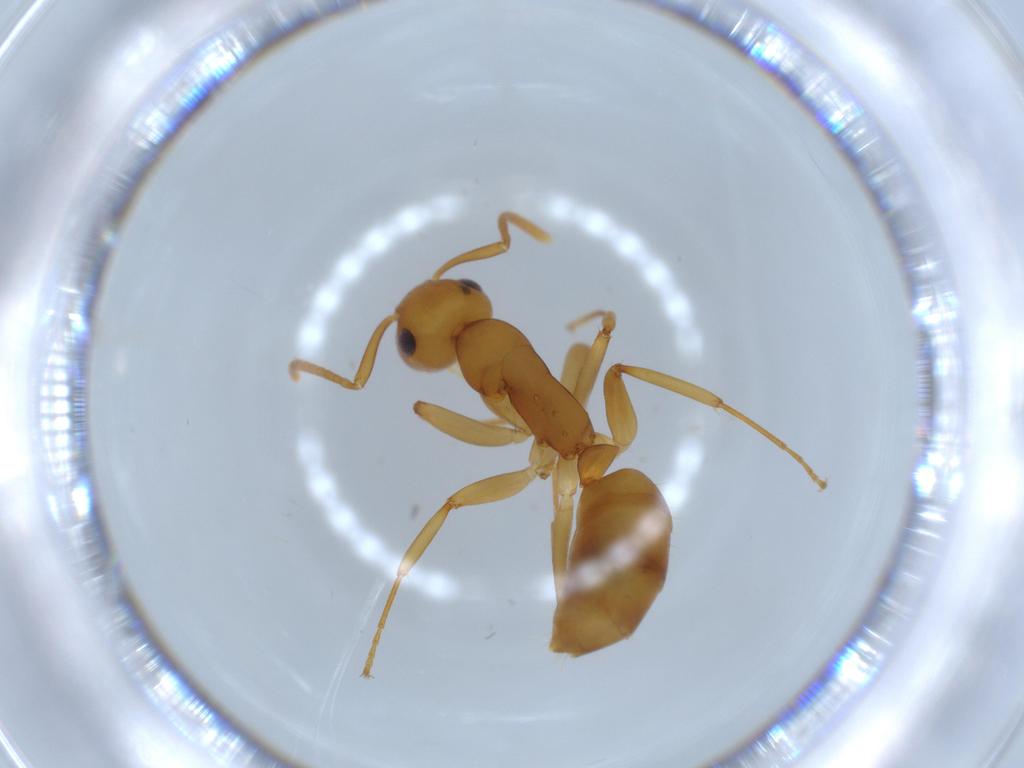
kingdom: Animalia
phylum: Arthropoda
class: Insecta
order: Hymenoptera
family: Formicidae
